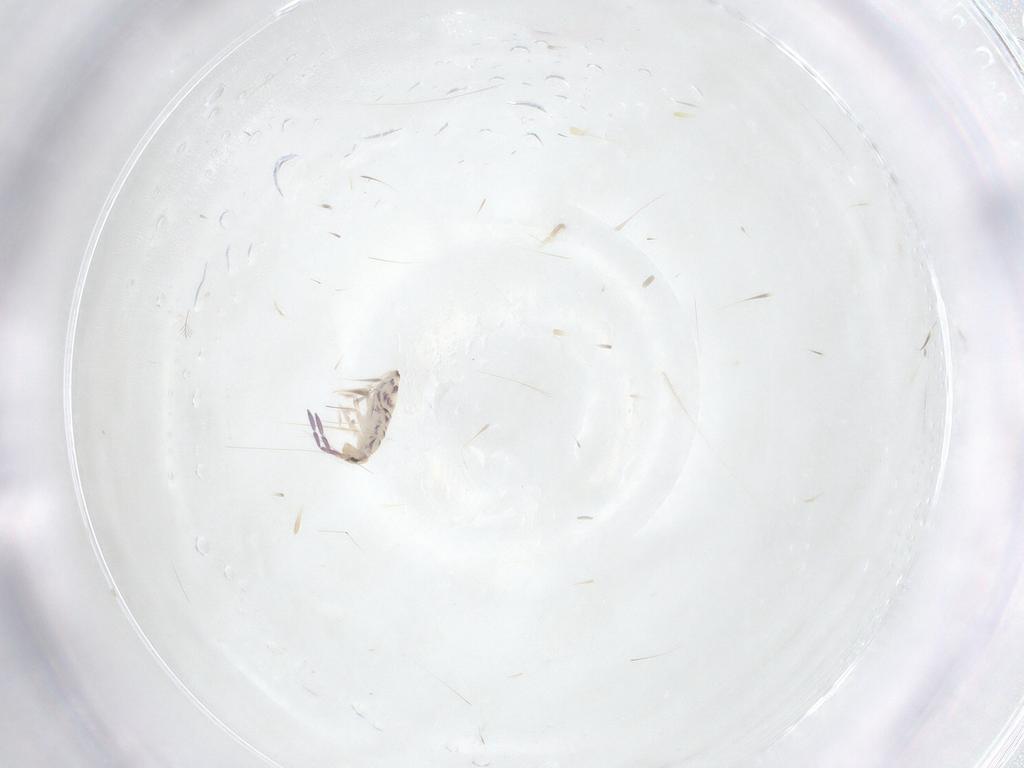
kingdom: Animalia
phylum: Arthropoda
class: Collembola
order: Entomobryomorpha
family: Entomobryidae
